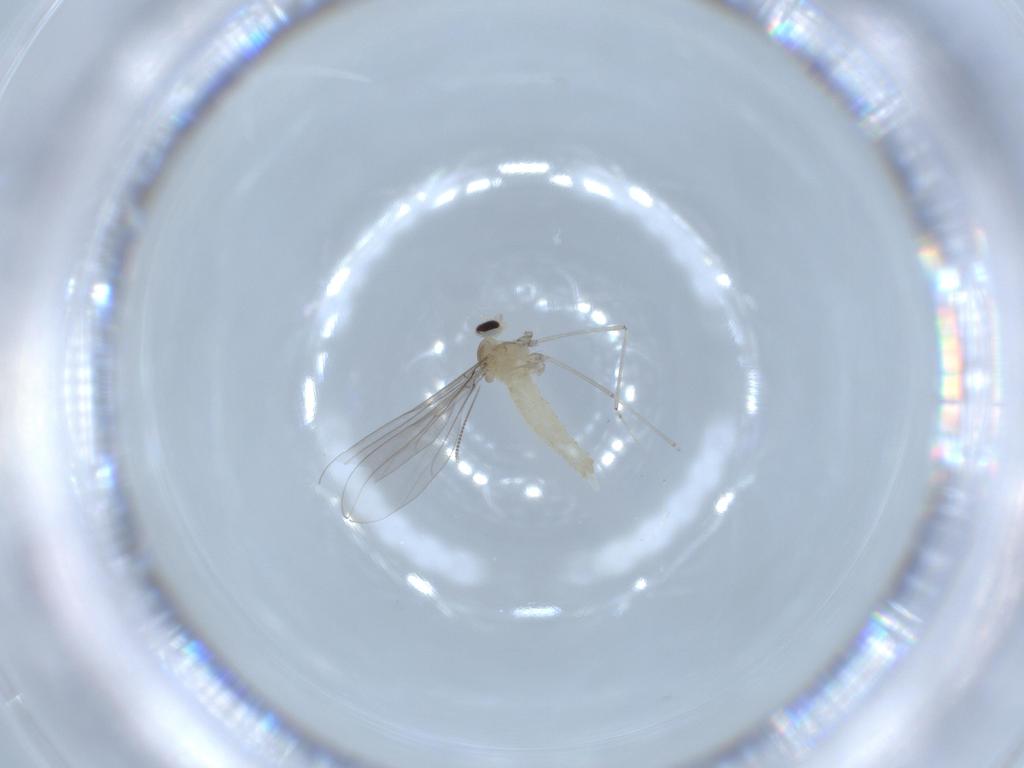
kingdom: Animalia
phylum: Arthropoda
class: Insecta
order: Diptera
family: Cecidomyiidae
